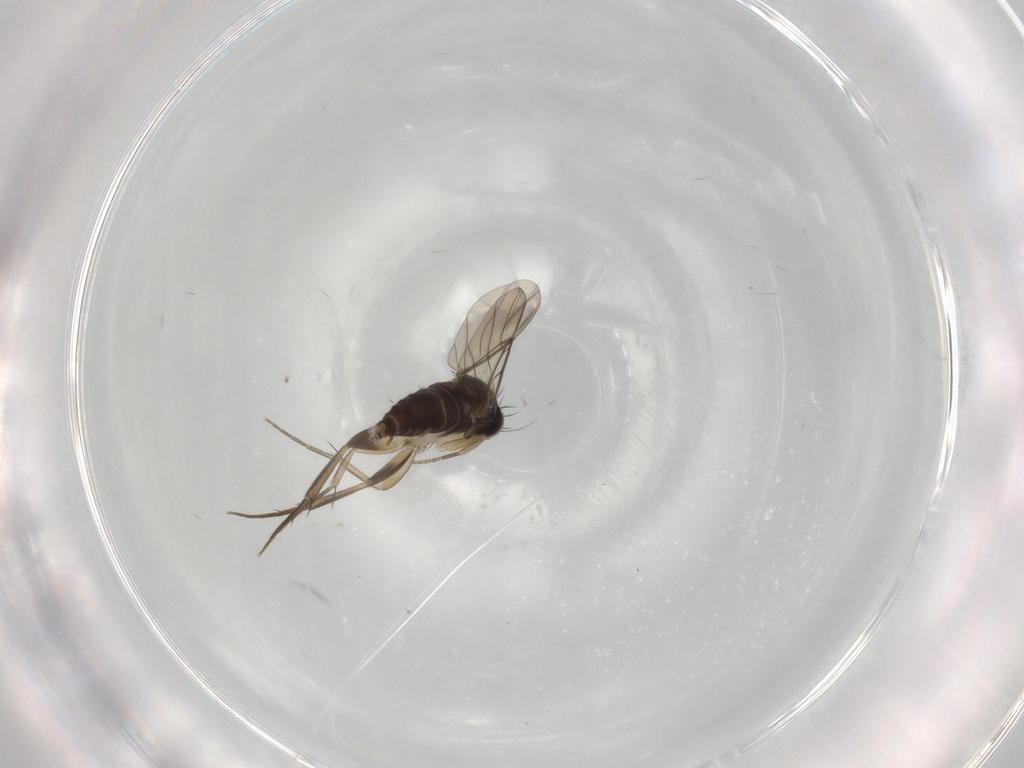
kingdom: Animalia
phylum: Arthropoda
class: Insecta
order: Diptera
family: Phoridae
